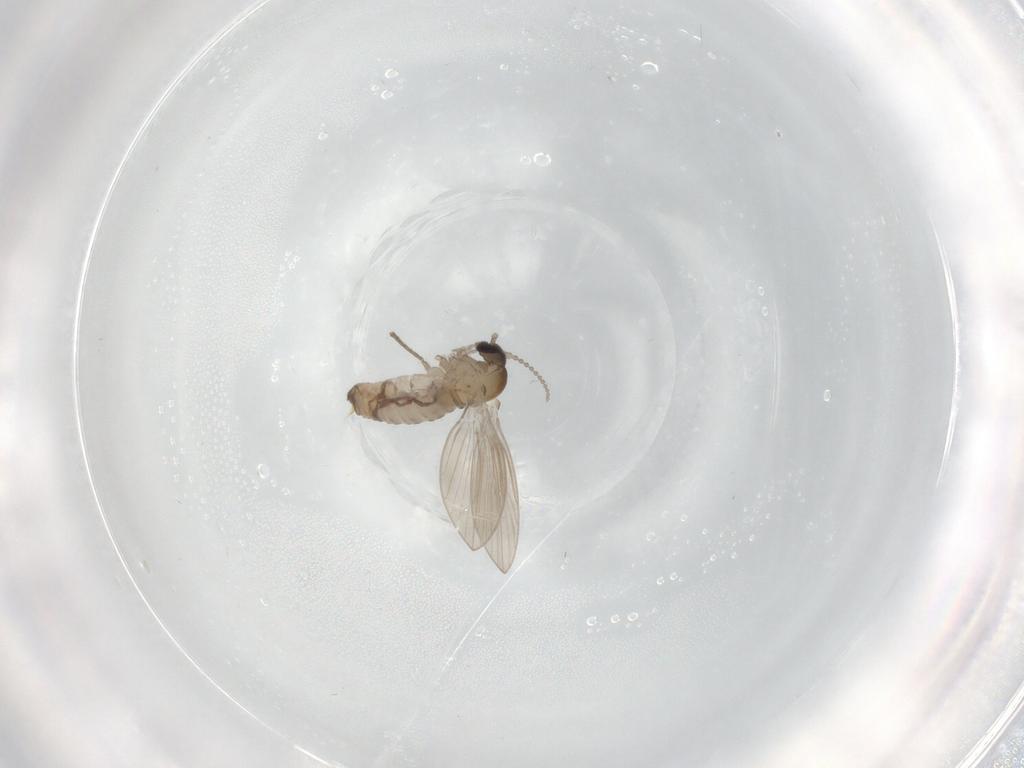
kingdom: Animalia
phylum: Arthropoda
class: Insecta
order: Diptera
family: Psychodidae
